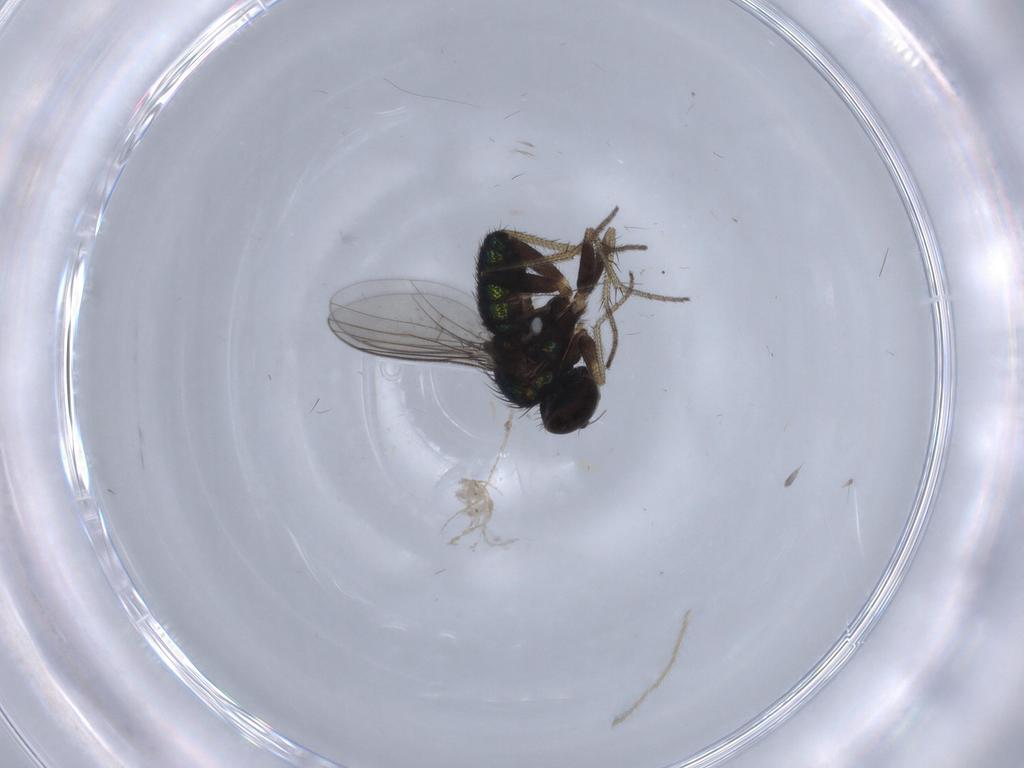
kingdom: Animalia
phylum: Arthropoda
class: Insecta
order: Diptera
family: Dolichopodidae
